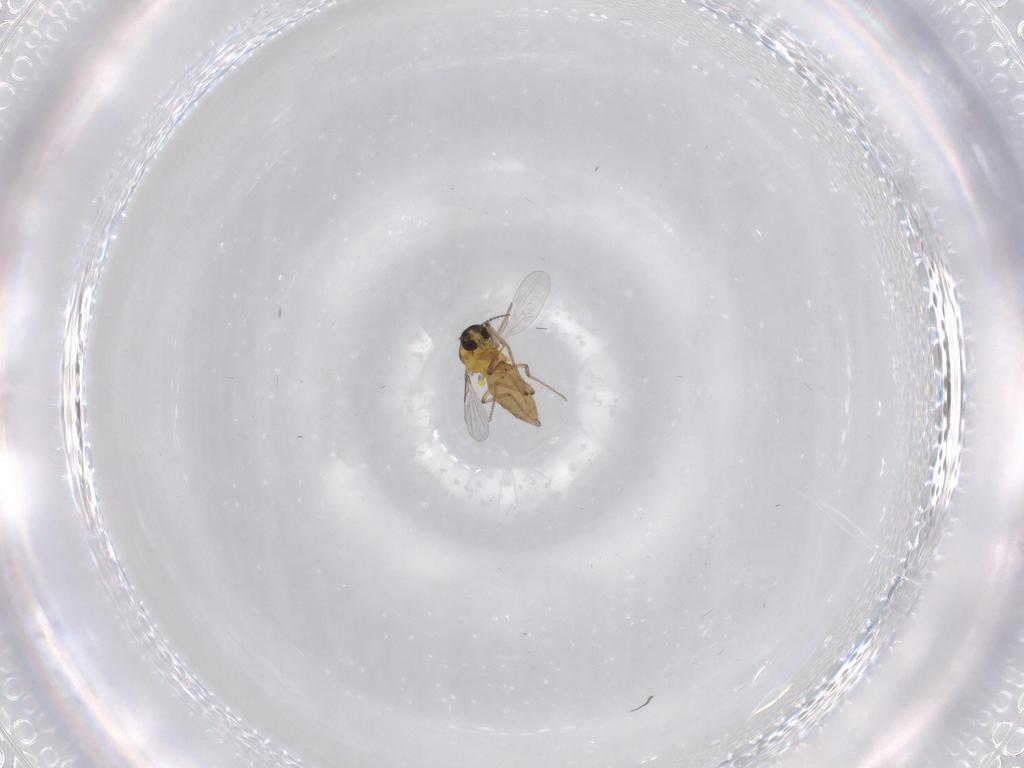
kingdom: Animalia
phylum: Arthropoda
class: Insecta
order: Diptera
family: Ceratopogonidae
